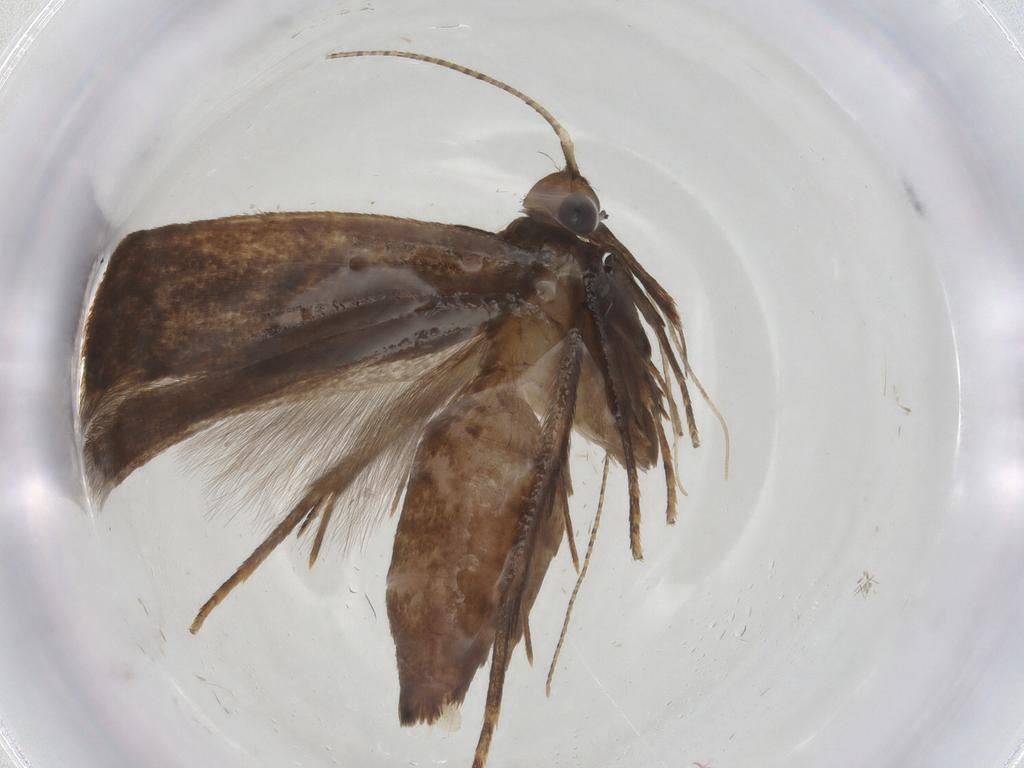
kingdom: Animalia
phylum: Arthropoda
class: Insecta
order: Lepidoptera
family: Gelechiidae
